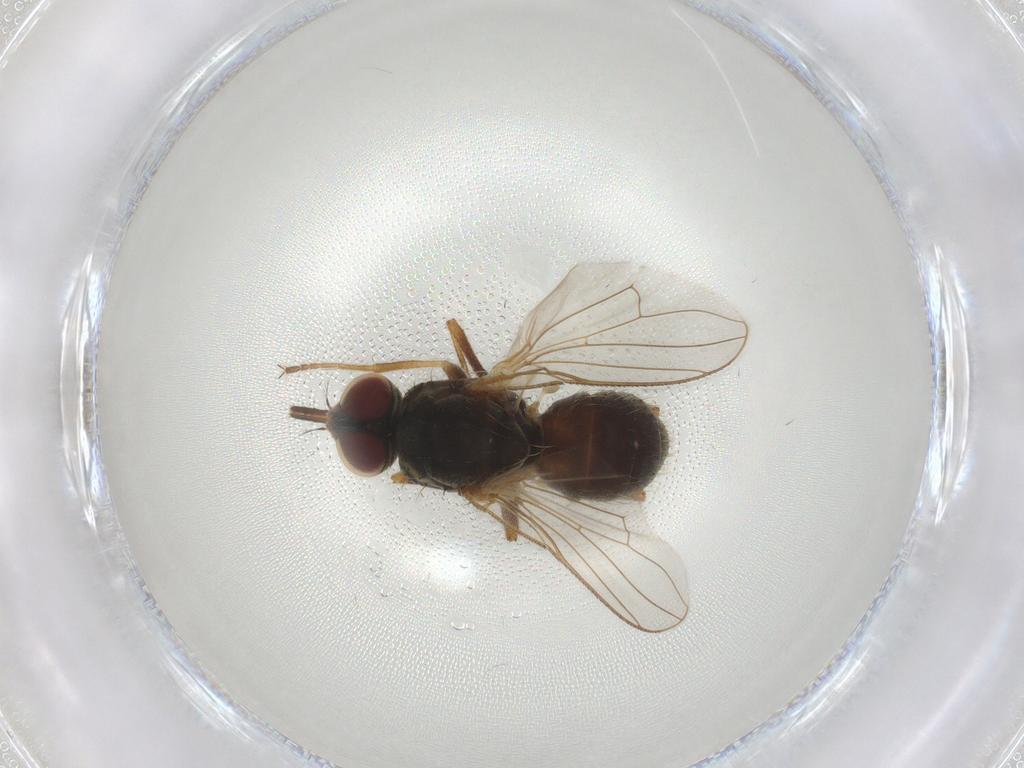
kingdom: Animalia
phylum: Arthropoda
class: Insecta
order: Diptera
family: Muscidae
